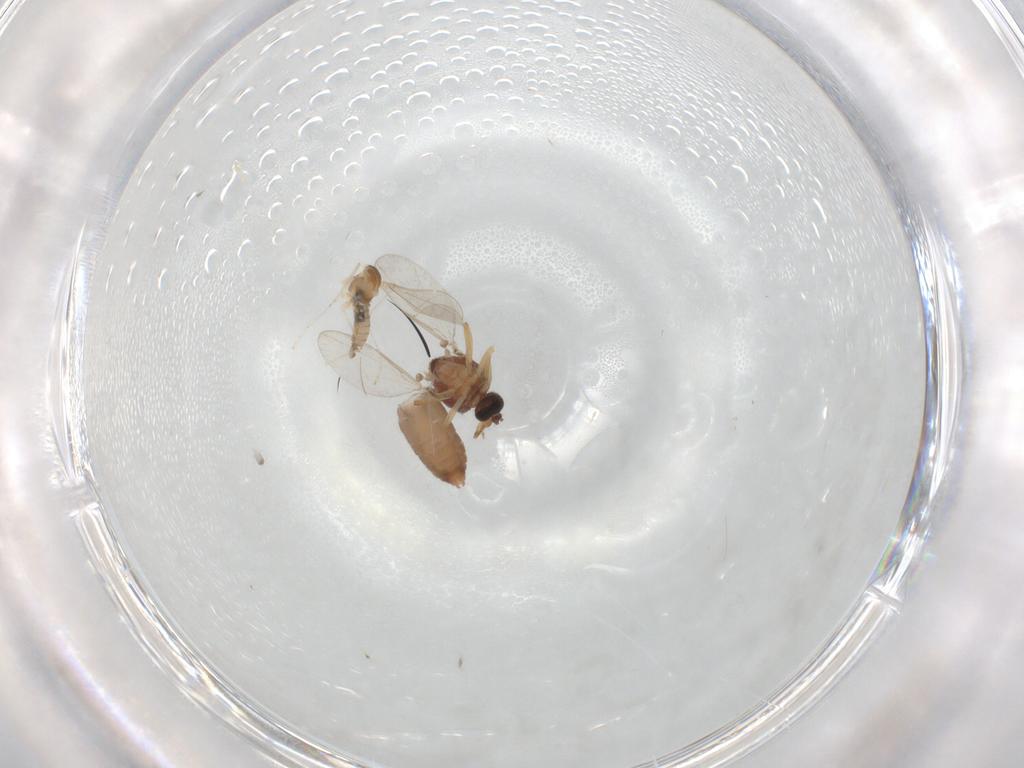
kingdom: Animalia
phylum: Arthropoda
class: Insecta
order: Diptera
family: Ceratopogonidae
